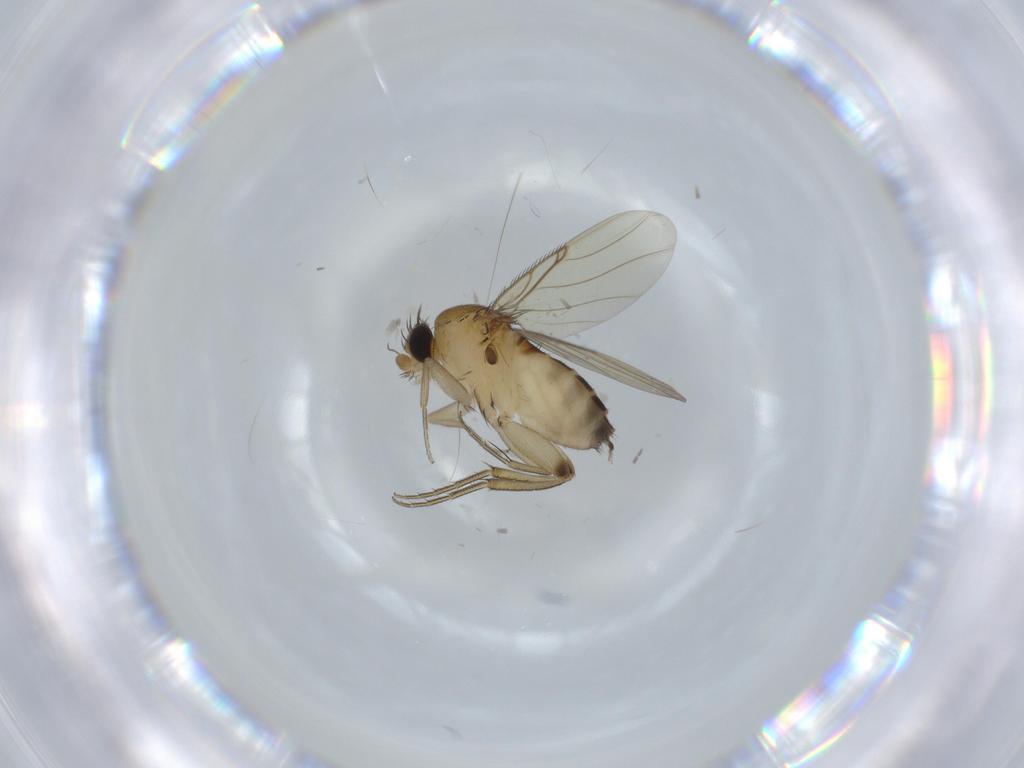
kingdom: Animalia
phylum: Arthropoda
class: Insecta
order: Diptera
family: Phoridae
